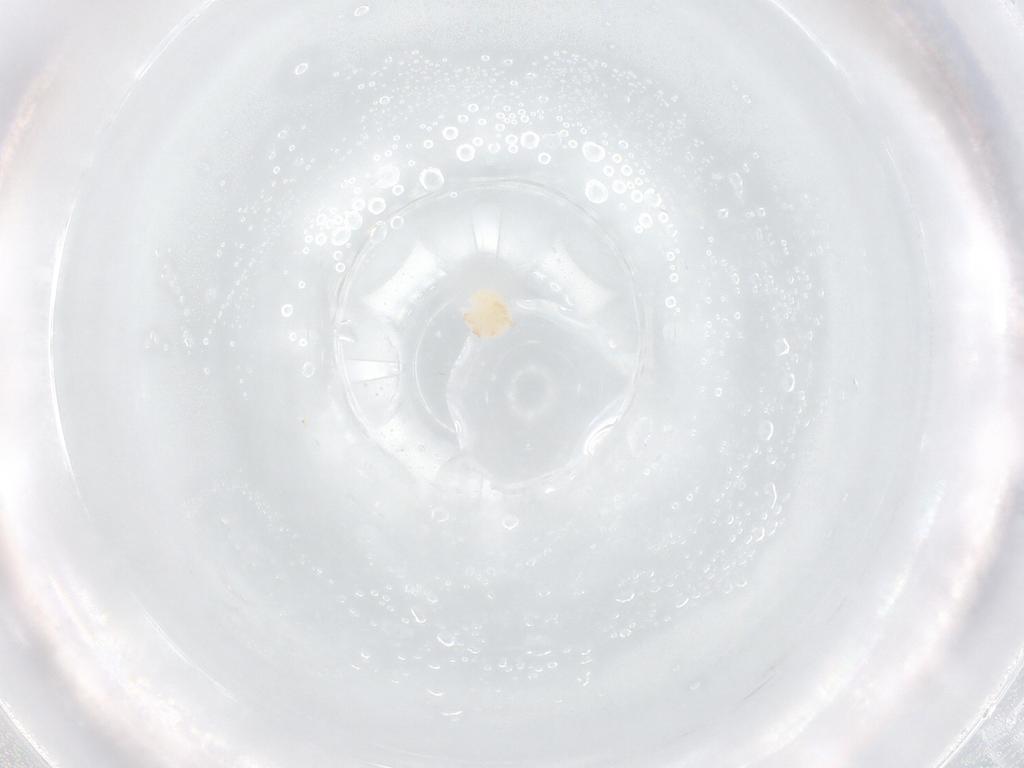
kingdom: Animalia
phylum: Arthropoda
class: Arachnida
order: Trombidiformes
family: Limnesiidae
